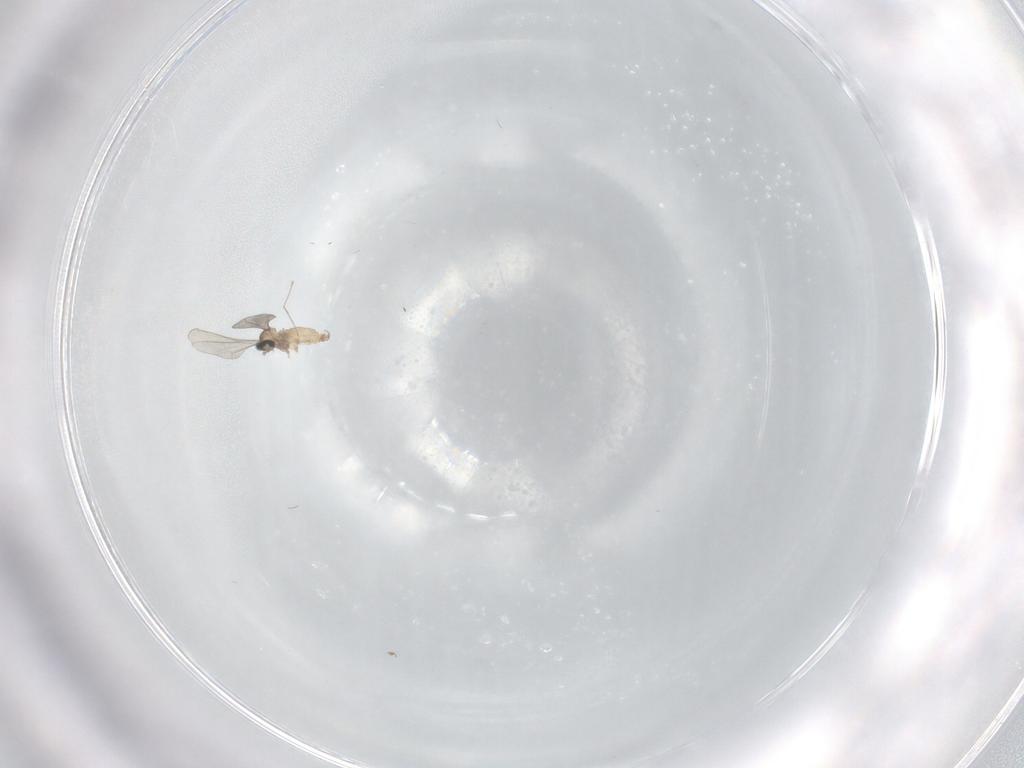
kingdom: Animalia
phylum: Arthropoda
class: Insecta
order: Diptera
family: Cecidomyiidae
